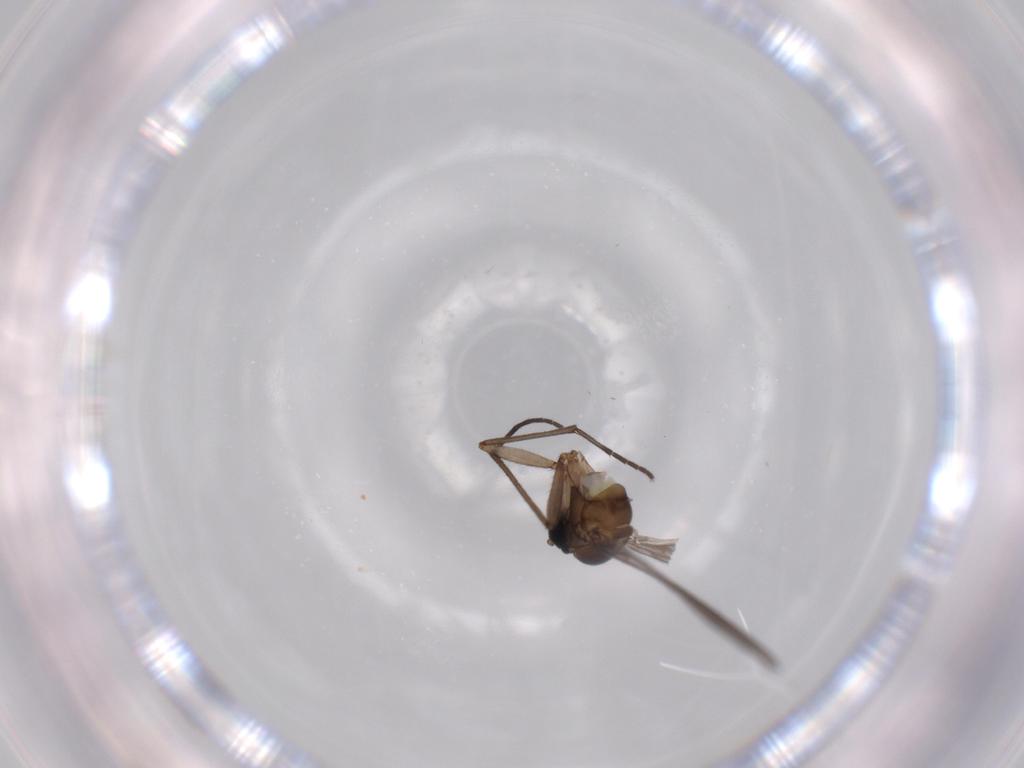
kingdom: Animalia
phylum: Arthropoda
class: Insecta
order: Diptera
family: Sciaridae
